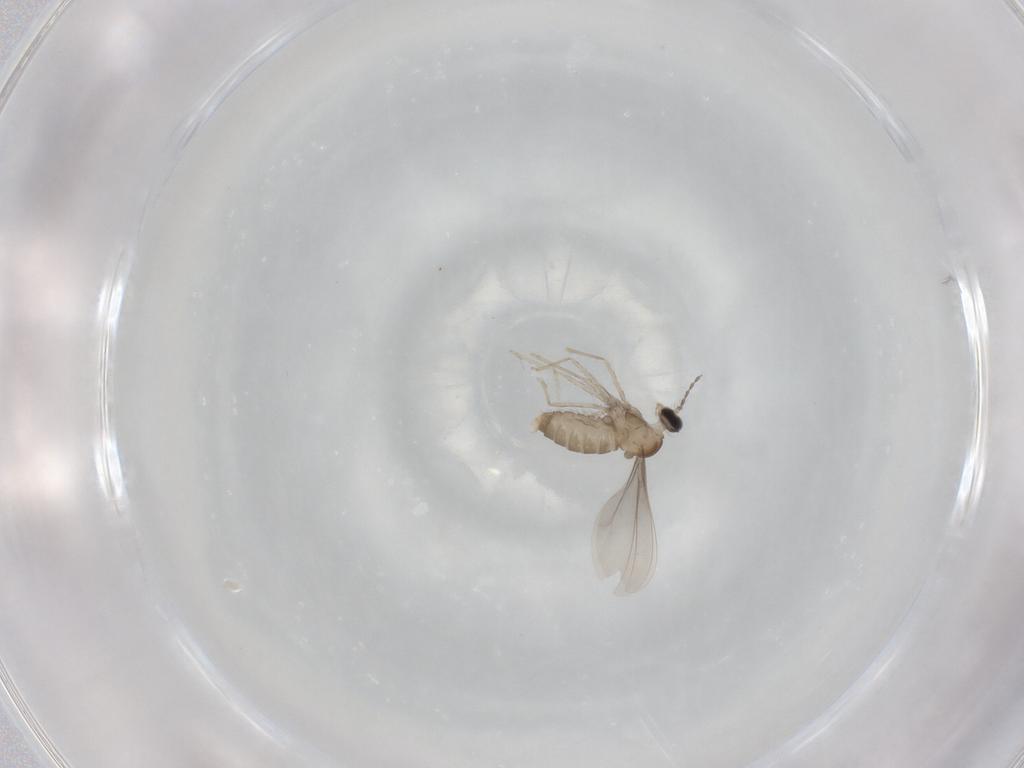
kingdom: Animalia
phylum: Arthropoda
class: Insecta
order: Diptera
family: Cecidomyiidae
